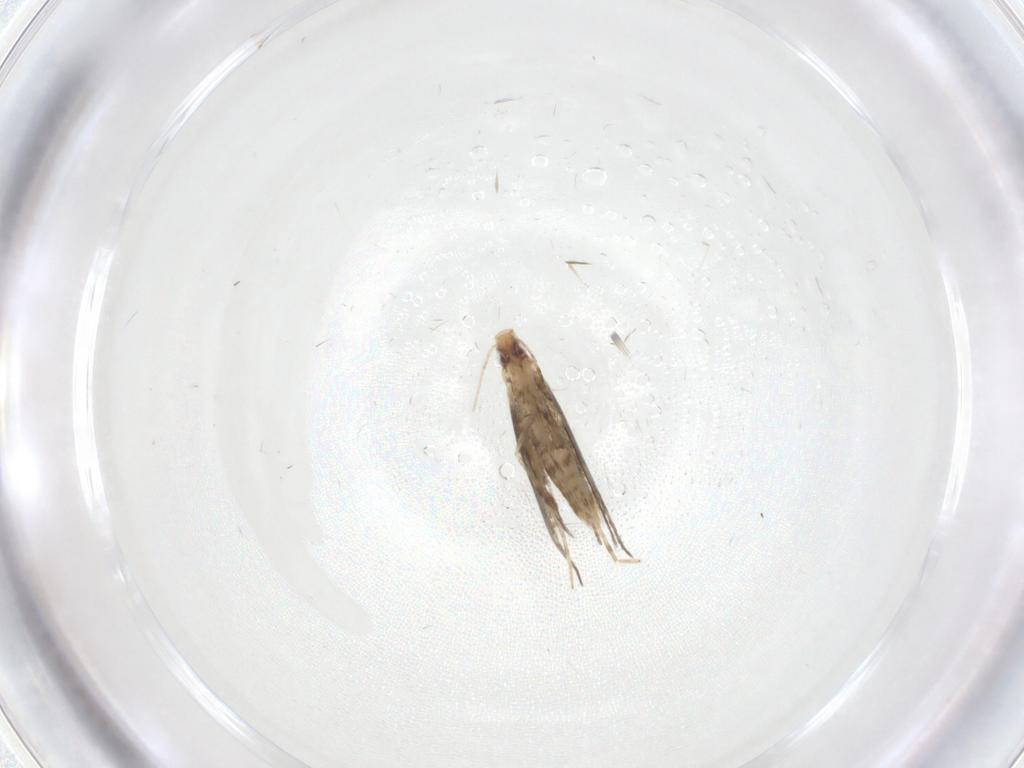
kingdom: Animalia
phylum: Arthropoda
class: Insecta
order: Lepidoptera
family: Gracillariidae
